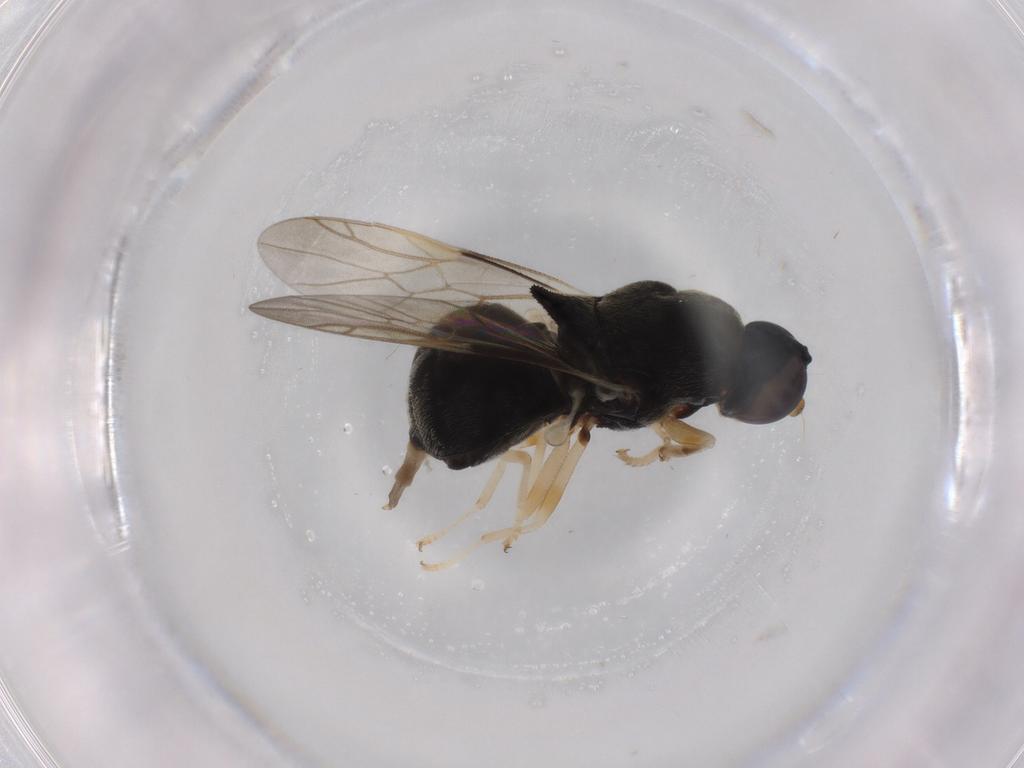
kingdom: Animalia
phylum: Arthropoda
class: Insecta
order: Diptera
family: Stratiomyidae
